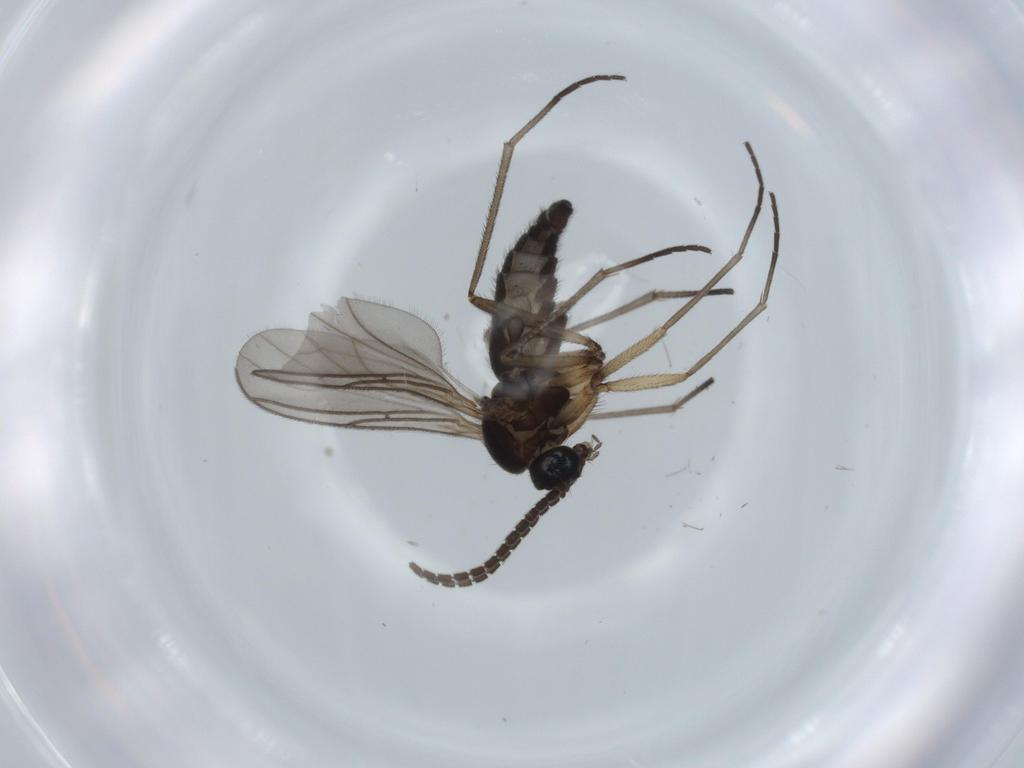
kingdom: Animalia
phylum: Arthropoda
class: Insecta
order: Diptera
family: Sciaridae
